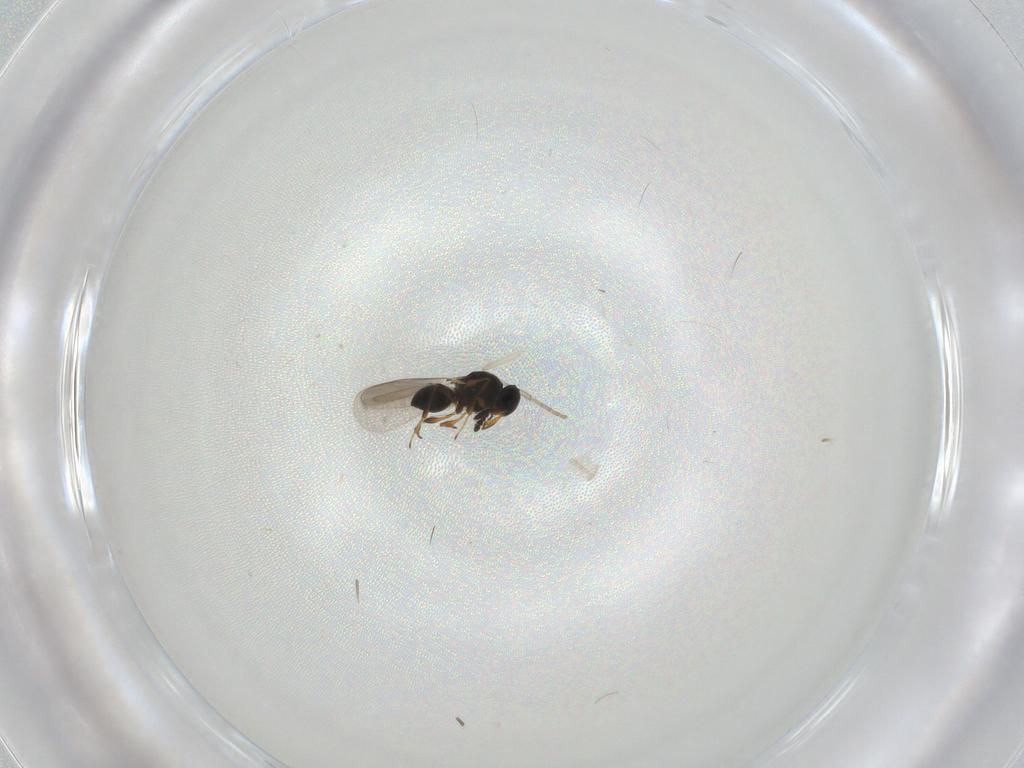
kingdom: Animalia
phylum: Arthropoda
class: Insecta
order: Hymenoptera
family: Platygastridae
